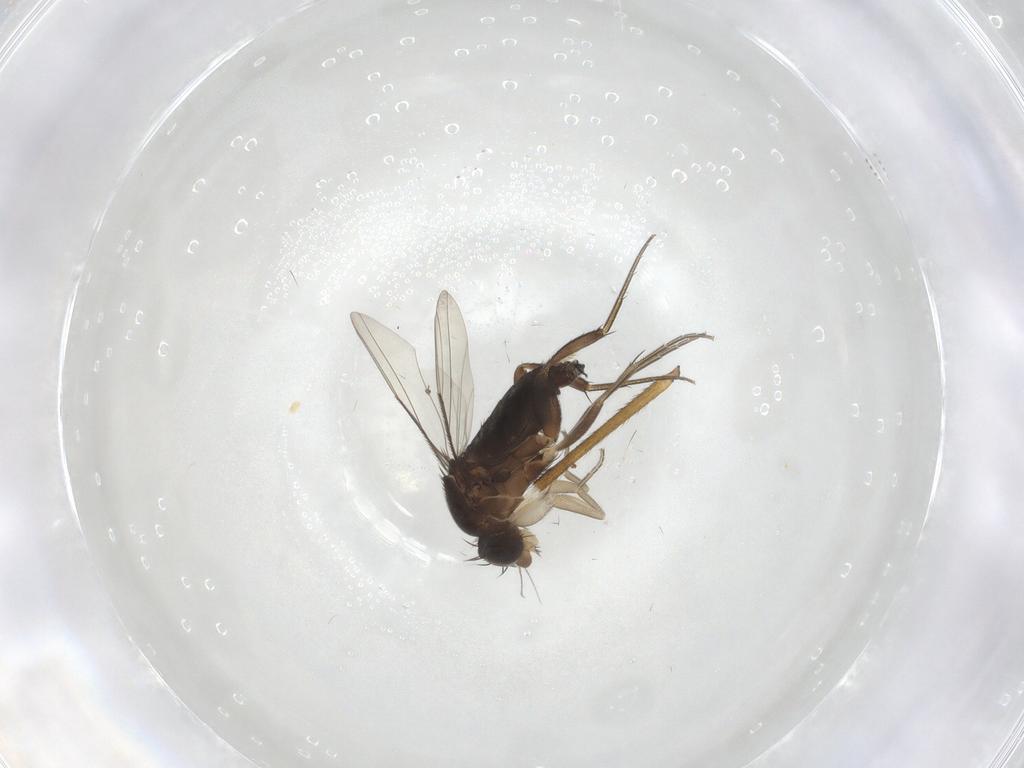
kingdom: Animalia
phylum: Arthropoda
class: Insecta
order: Diptera
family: Limoniidae
